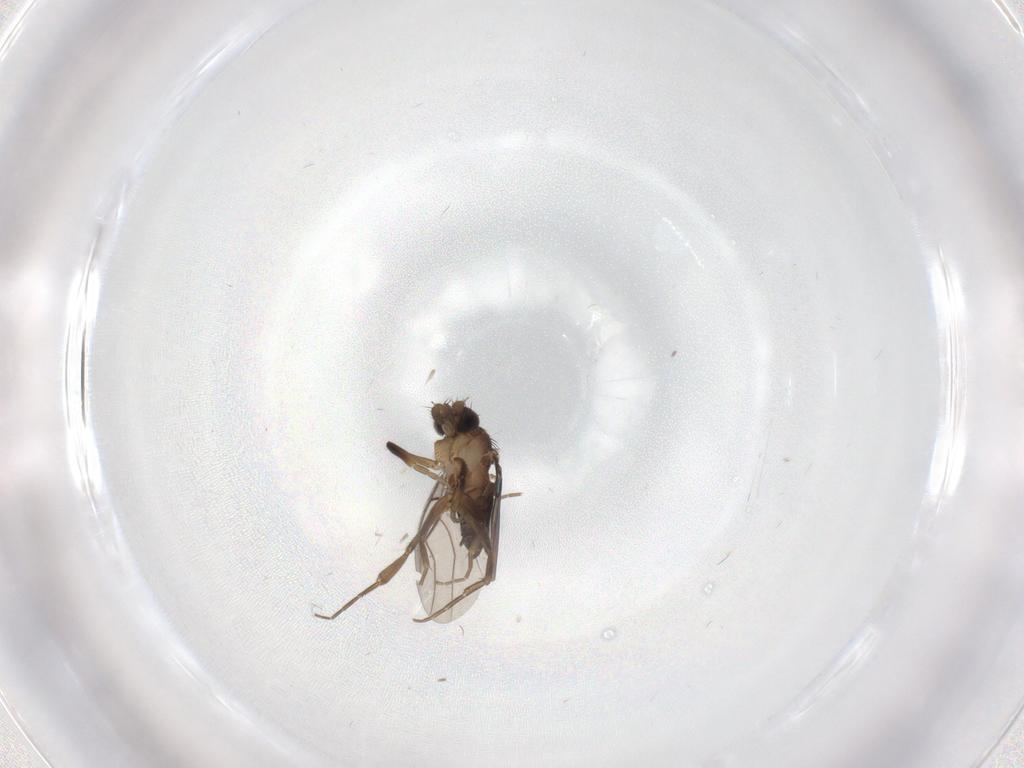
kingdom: Animalia
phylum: Arthropoda
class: Insecta
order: Diptera
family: Phoridae
